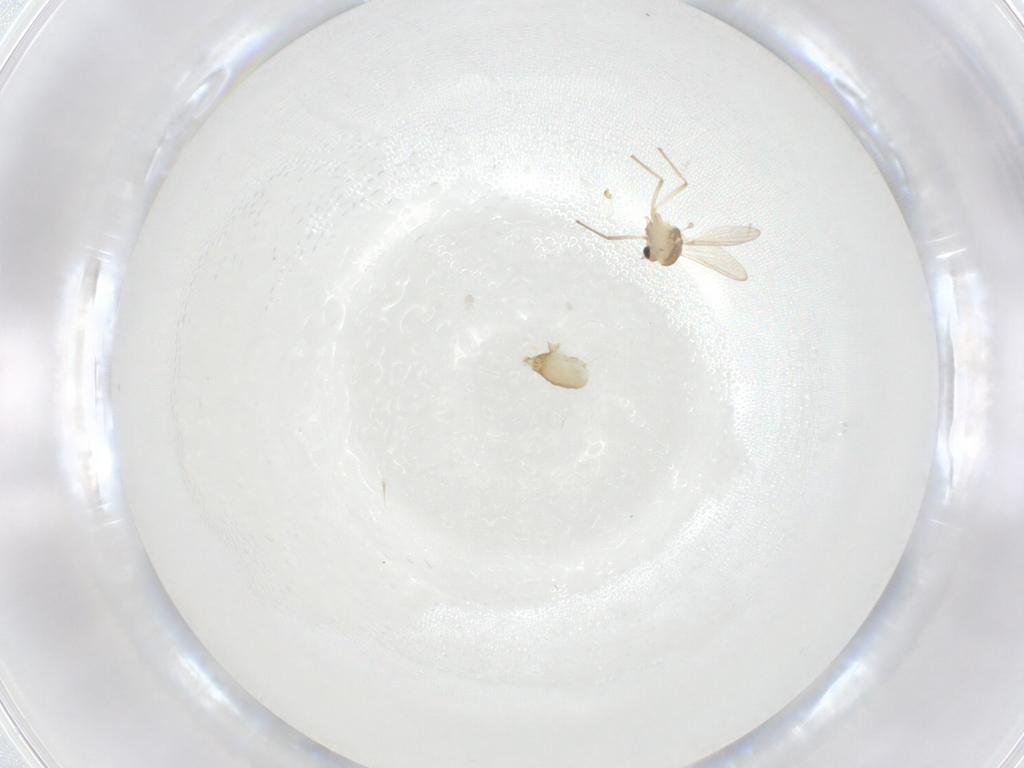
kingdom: Animalia
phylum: Arthropoda
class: Insecta
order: Diptera
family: Chironomidae
